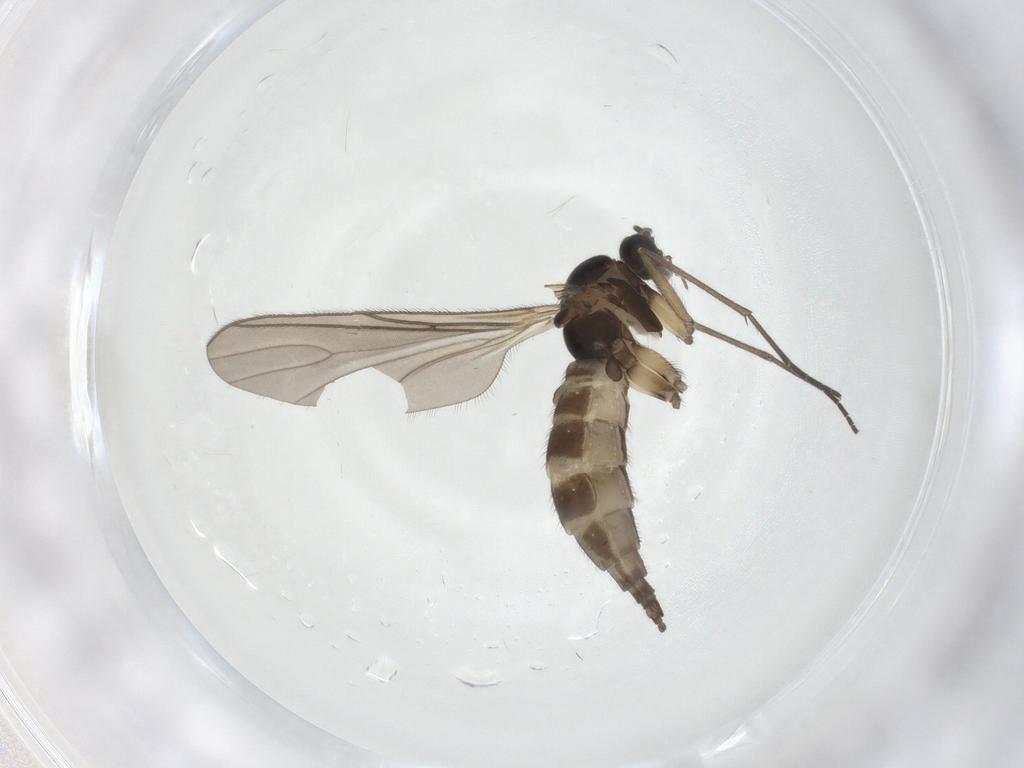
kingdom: Animalia
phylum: Arthropoda
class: Insecta
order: Diptera
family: Sciaridae
